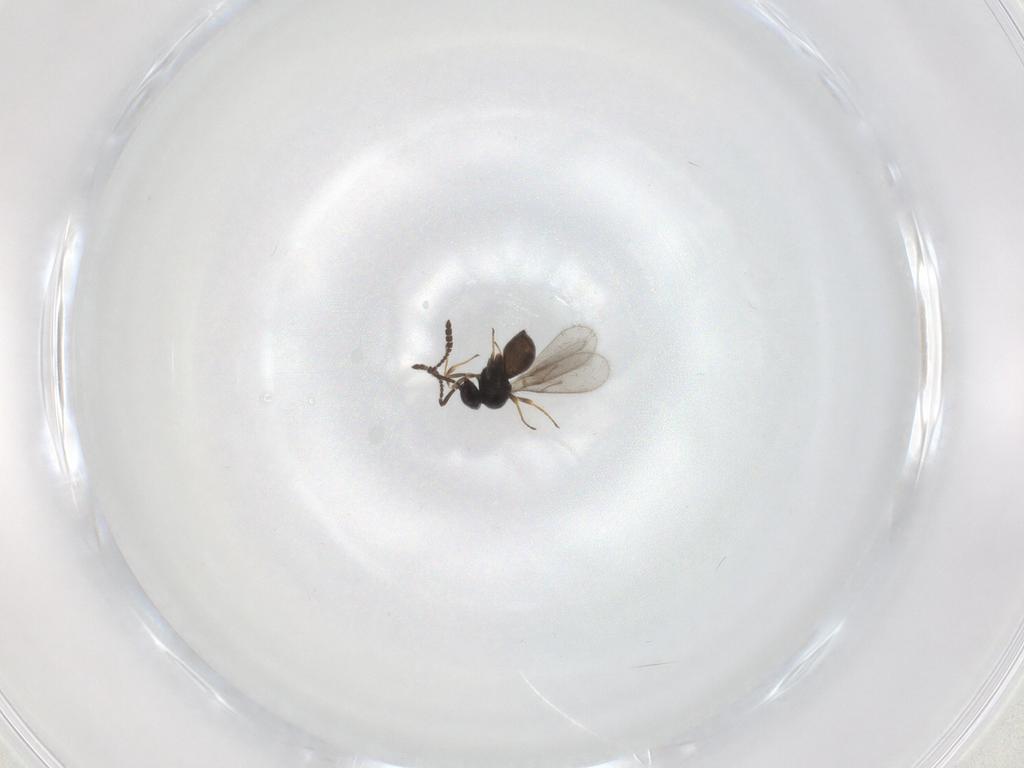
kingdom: Animalia
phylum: Arthropoda
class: Insecta
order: Hymenoptera
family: Scelionidae
